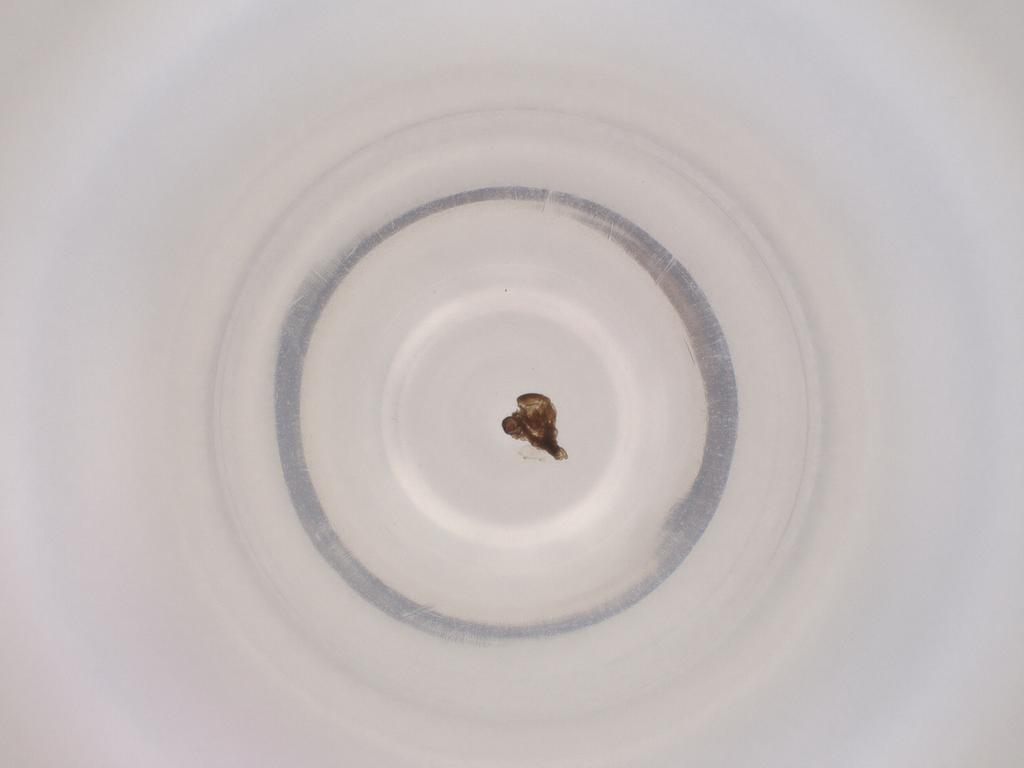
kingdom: Animalia
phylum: Arthropoda
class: Insecta
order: Diptera
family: Cecidomyiidae
